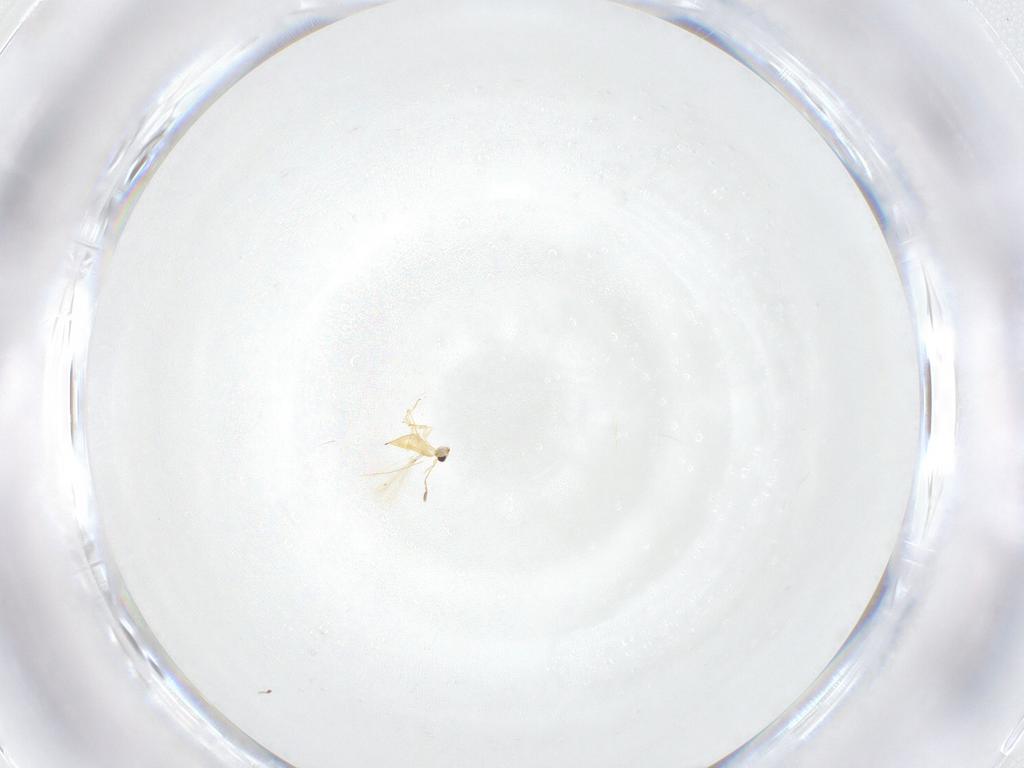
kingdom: Animalia
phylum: Arthropoda
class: Insecta
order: Hymenoptera
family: Mymaridae
